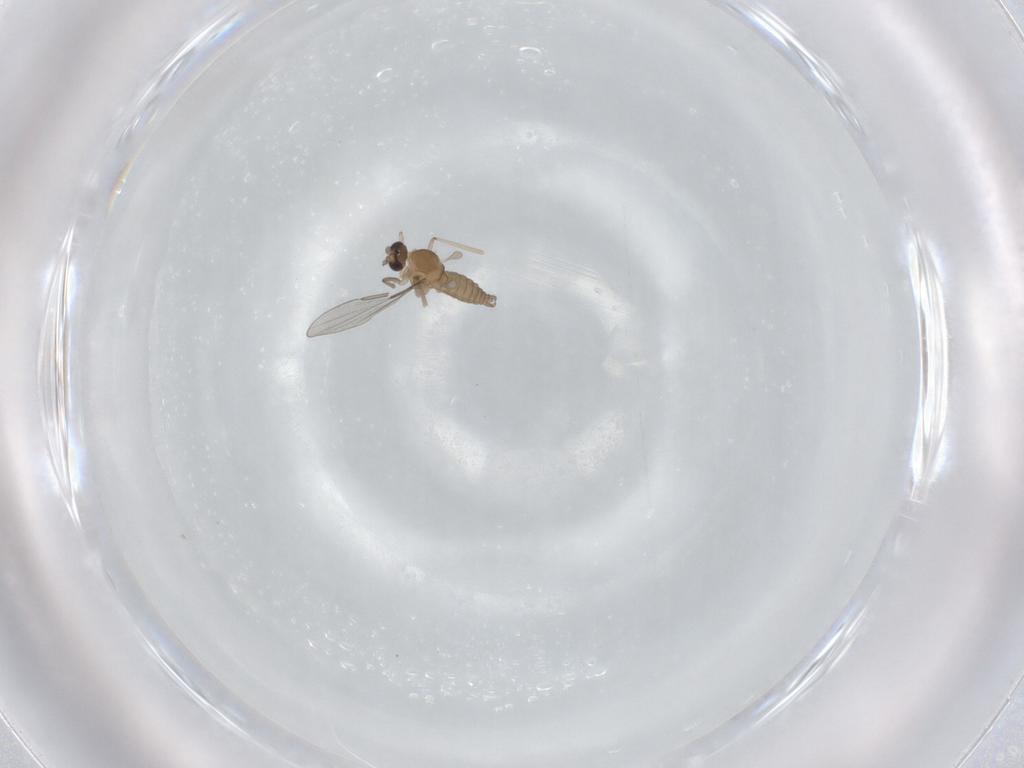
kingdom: Animalia
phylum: Arthropoda
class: Insecta
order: Diptera
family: Cecidomyiidae
